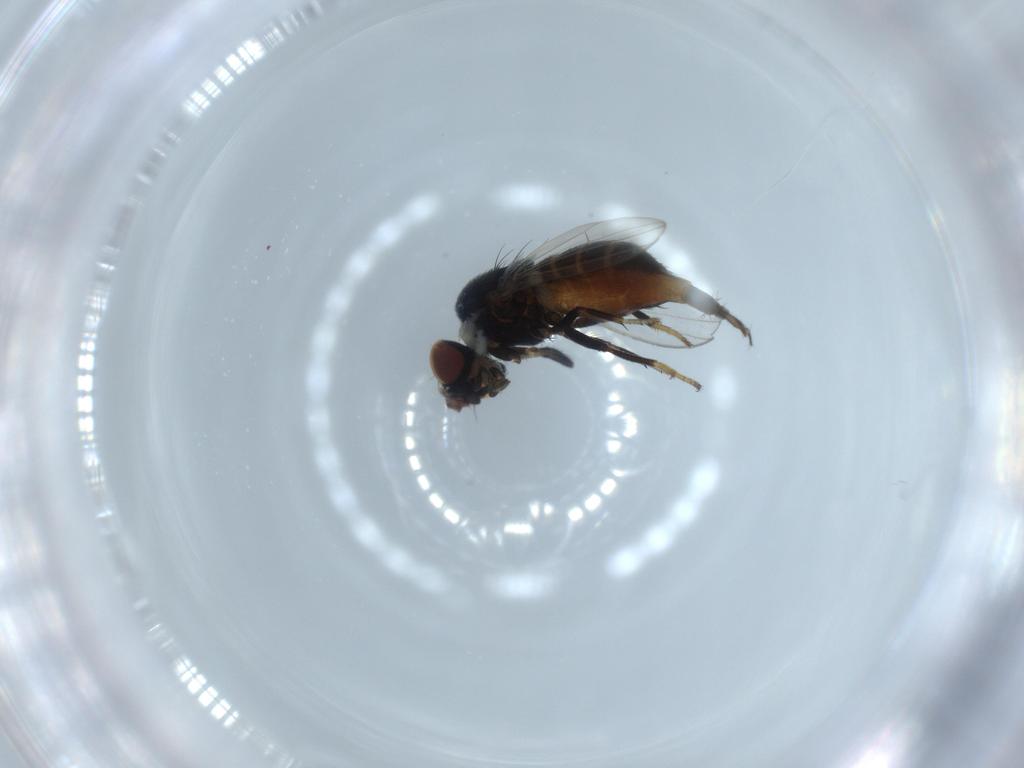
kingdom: Animalia
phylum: Arthropoda
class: Insecta
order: Diptera
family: Milichiidae
